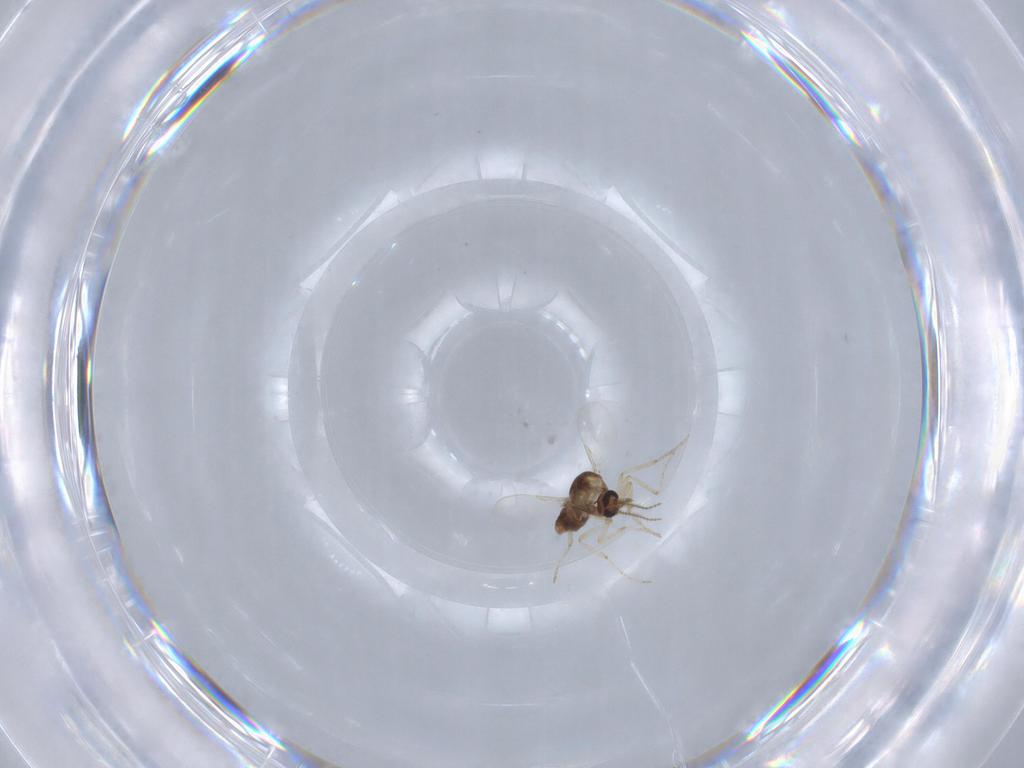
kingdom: Animalia
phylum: Arthropoda
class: Insecta
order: Diptera
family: Ceratopogonidae
